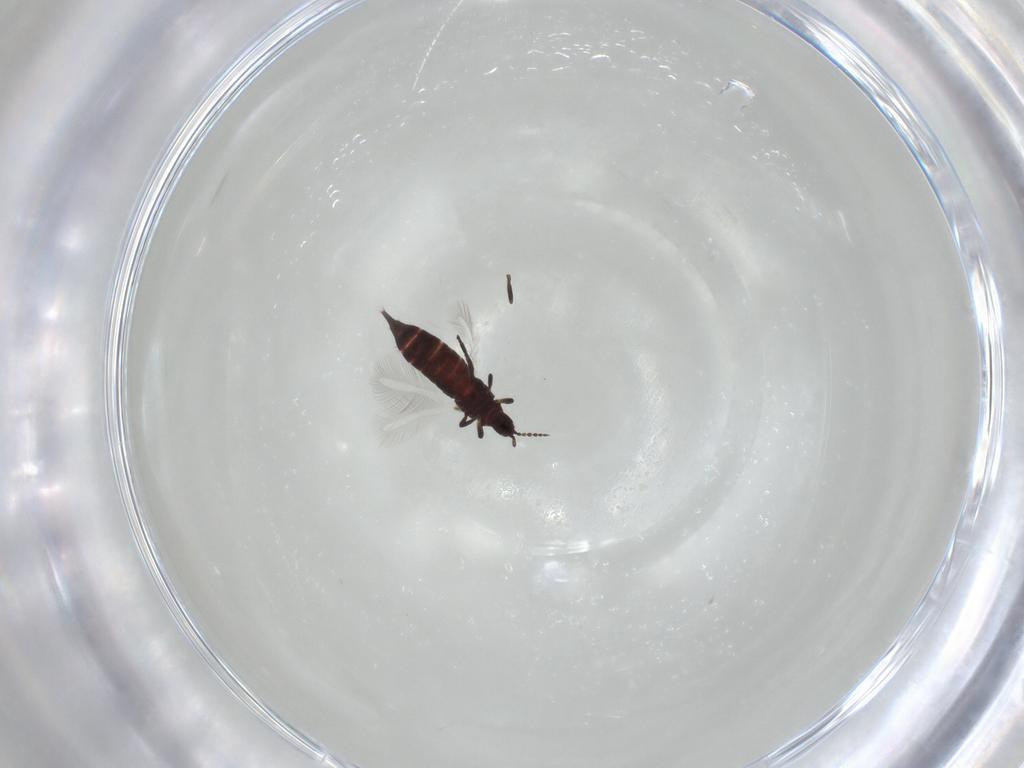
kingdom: Animalia
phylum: Arthropoda
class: Insecta
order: Thysanoptera
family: Phlaeothripidae
